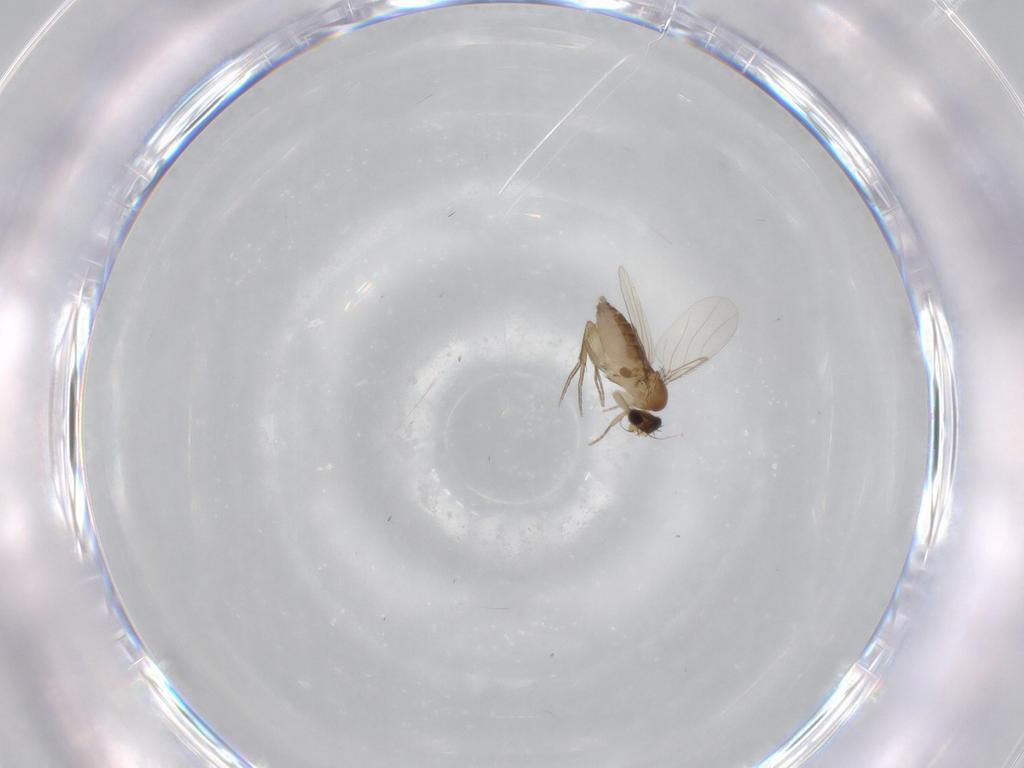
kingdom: Animalia
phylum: Arthropoda
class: Insecta
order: Diptera
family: Phoridae
